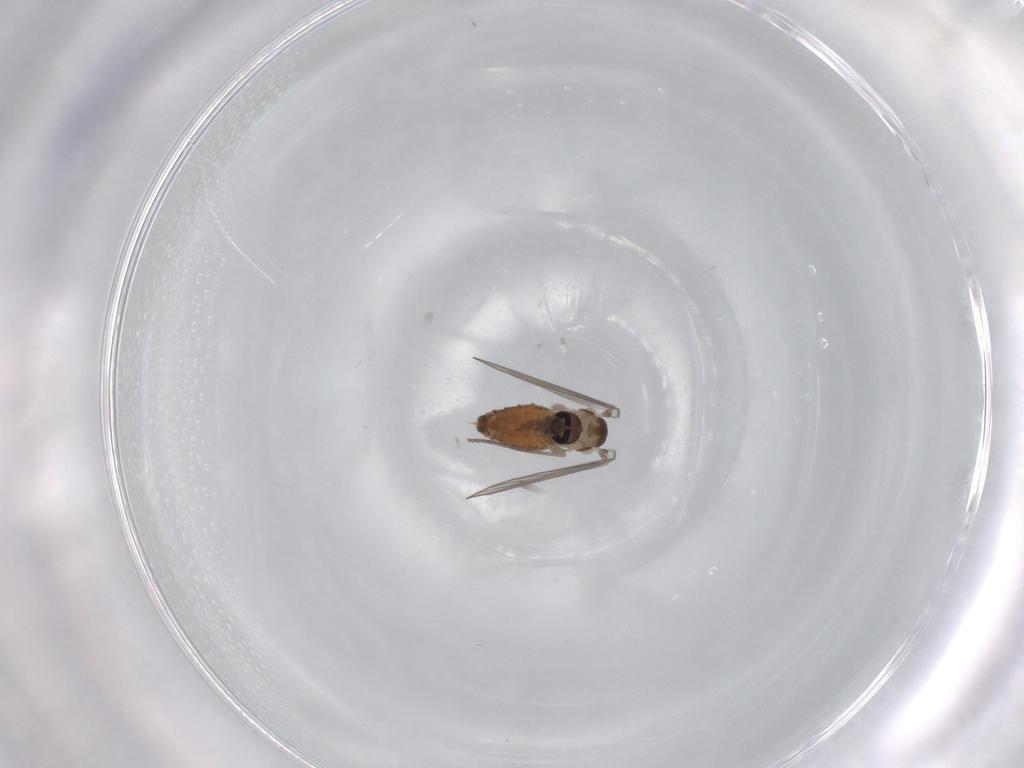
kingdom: Animalia
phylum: Arthropoda
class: Insecta
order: Diptera
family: Psychodidae
